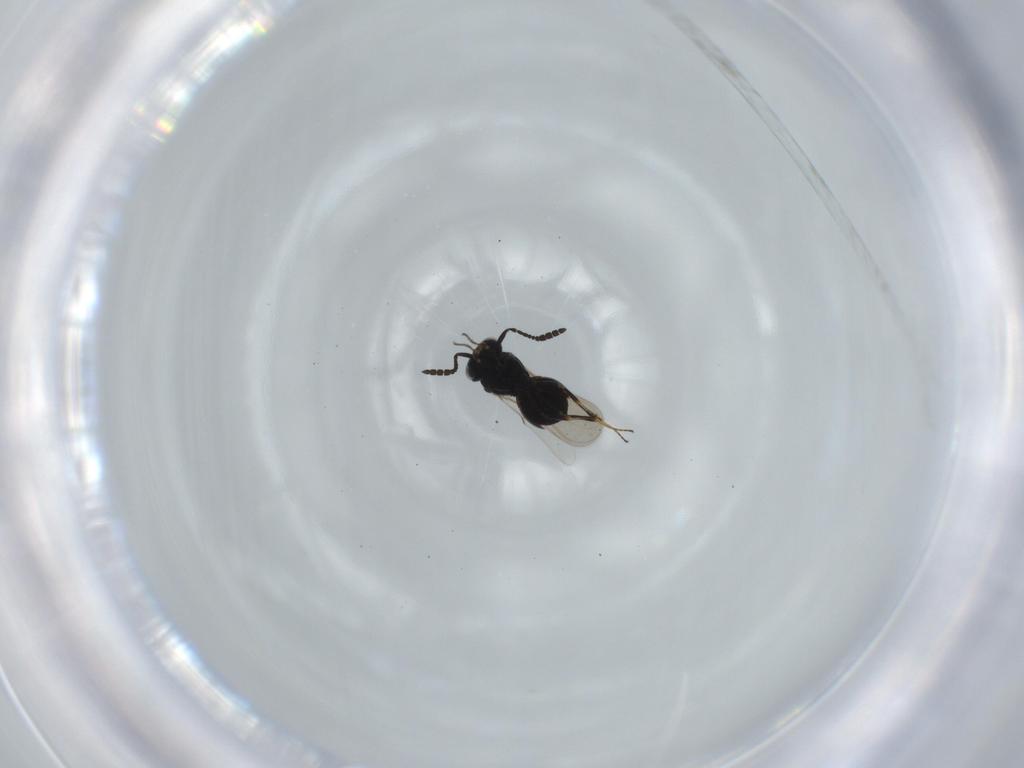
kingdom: Animalia
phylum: Arthropoda
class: Insecta
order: Hymenoptera
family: Scelionidae
